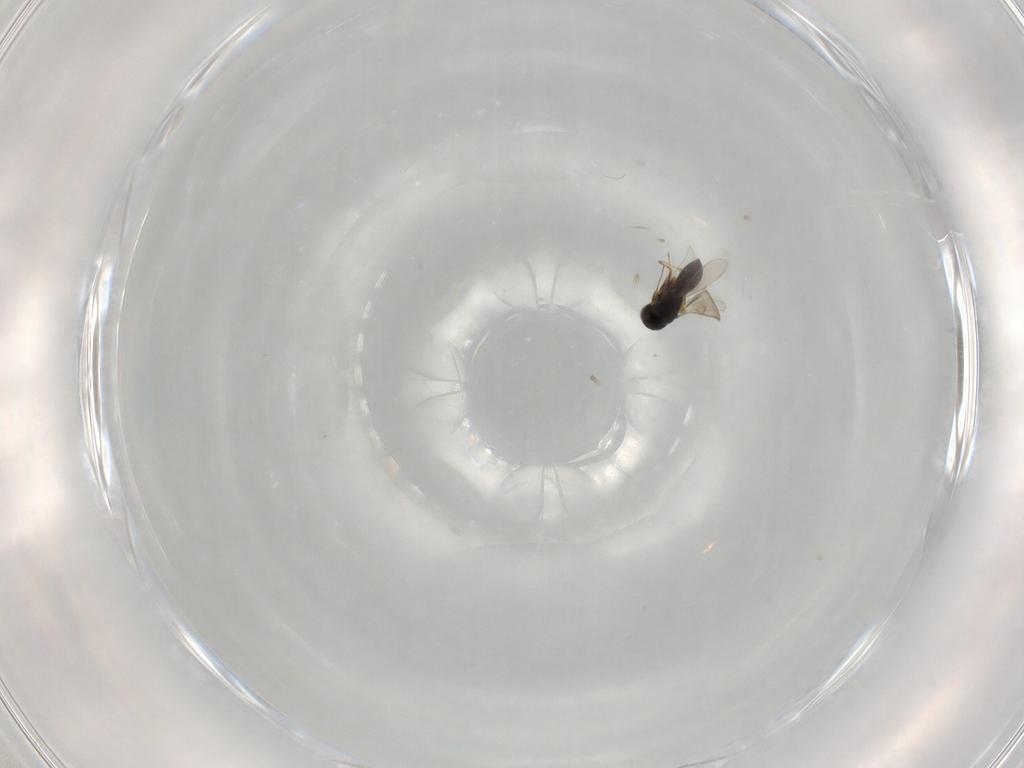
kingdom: Animalia
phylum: Arthropoda
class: Insecta
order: Hymenoptera
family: Scelionidae
